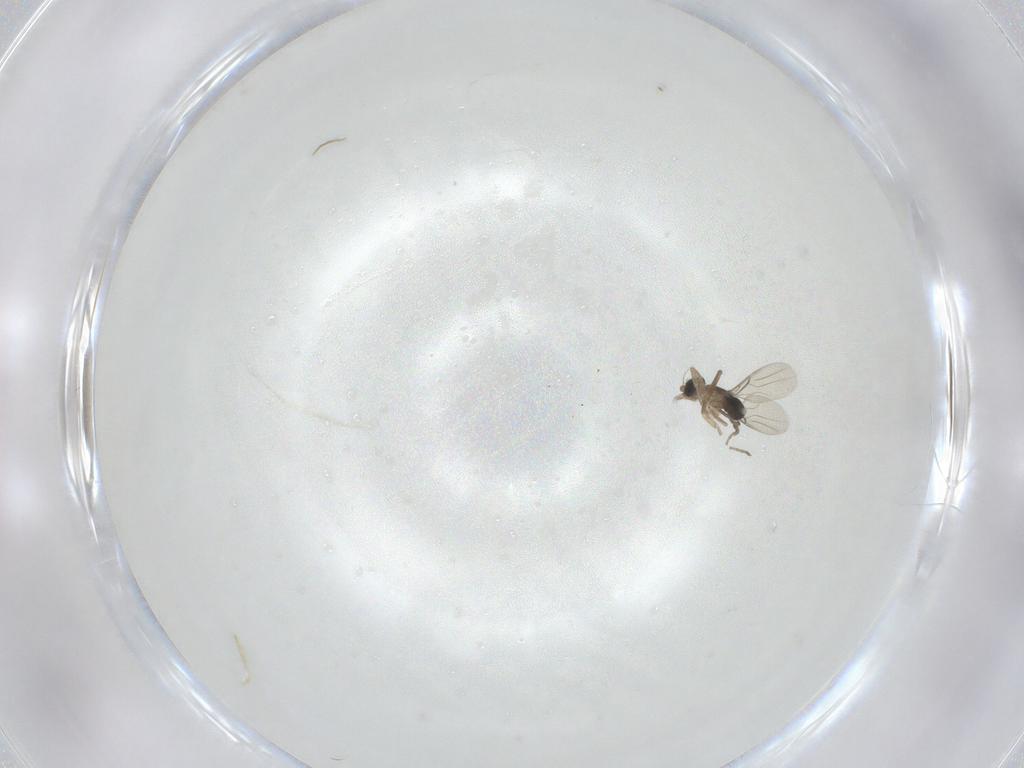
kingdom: Animalia
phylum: Arthropoda
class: Insecta
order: Diptera
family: Phoridae
